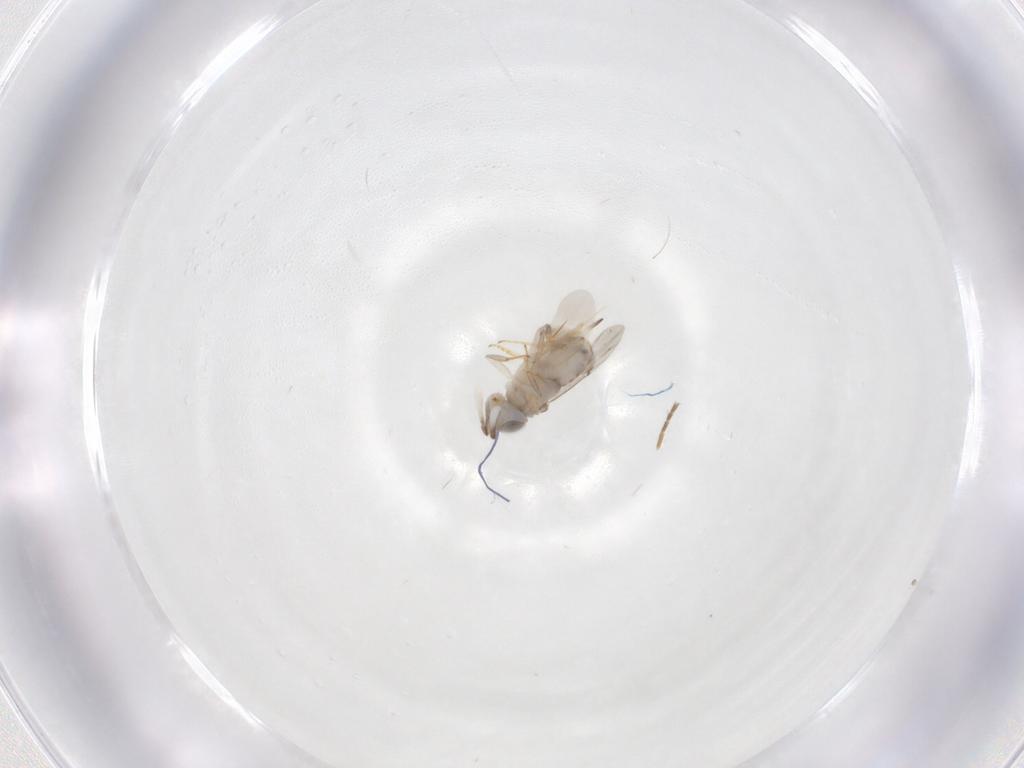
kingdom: Animalia
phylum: Arthropoda
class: Insecta
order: Hymenoptera
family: Encyrtidae
